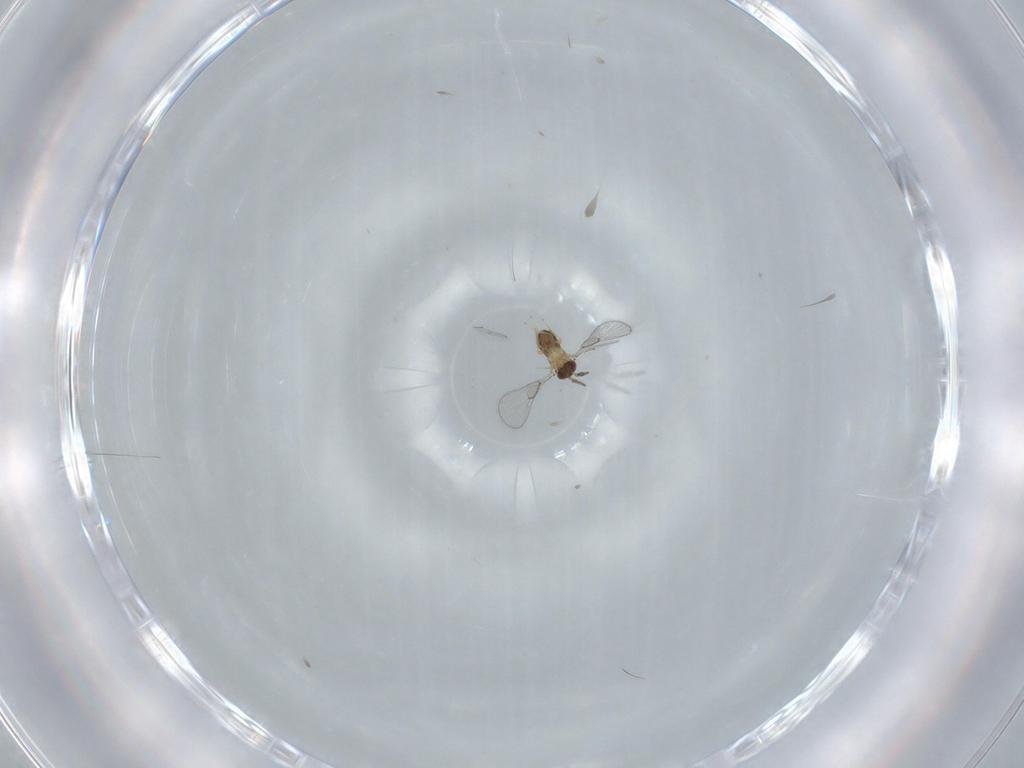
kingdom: Animalia
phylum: Arthropoda
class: Insecta
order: Hymenoptera
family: Trichogrammatidae
